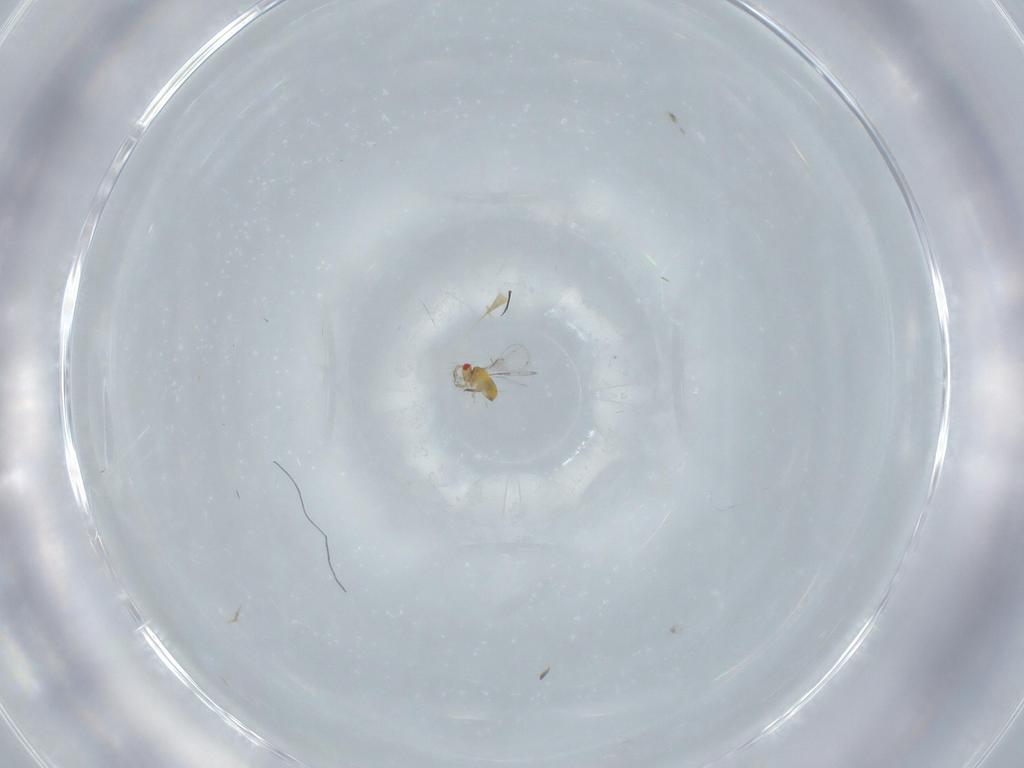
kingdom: Animalia
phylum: Arthropoda
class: Insecta
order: Hymenoptera
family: Trichogrammatidae
